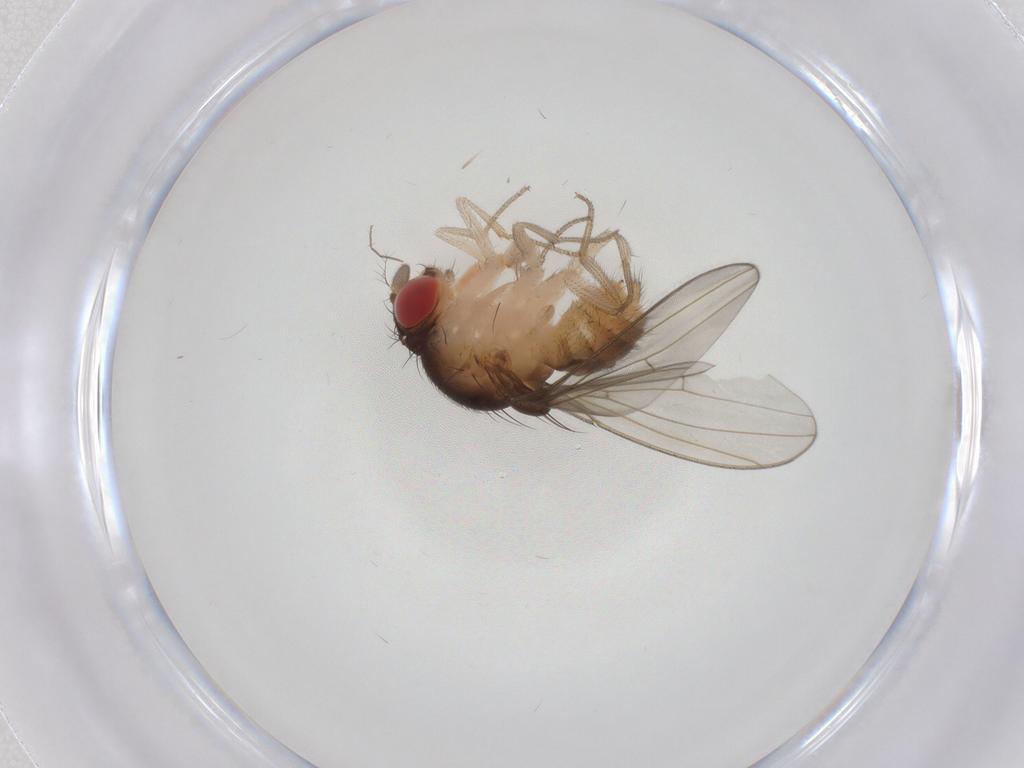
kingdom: Animalia
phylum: Arthropoda
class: Insecta
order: Diptera
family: Drosophilidae
